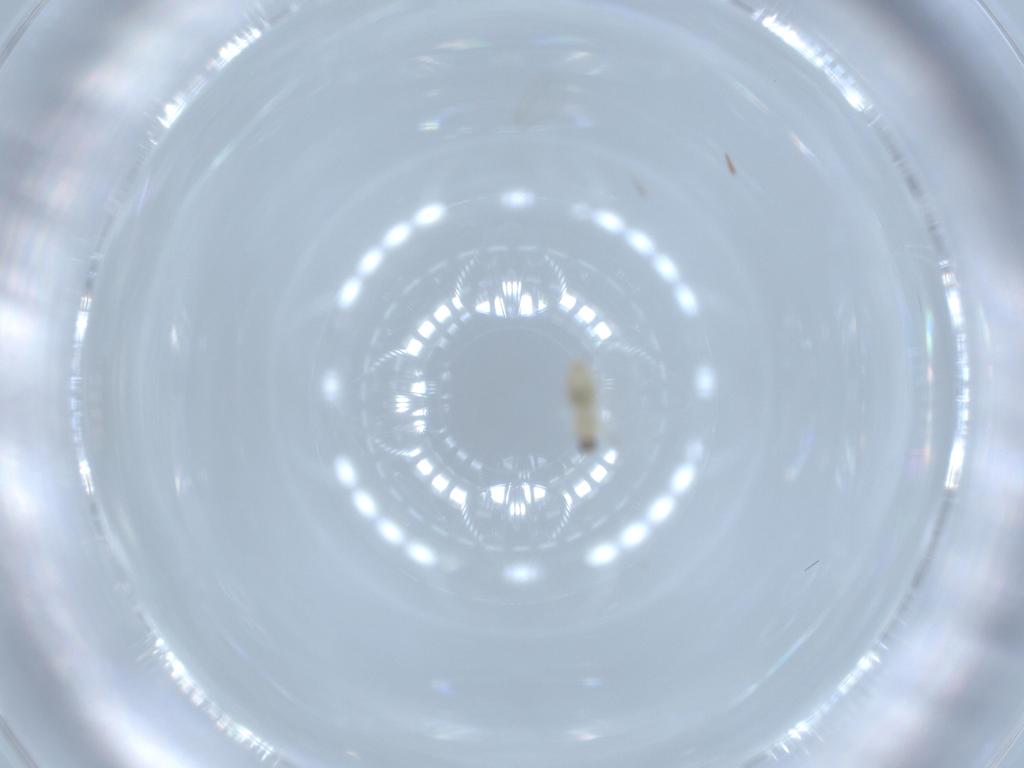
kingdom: Animalia
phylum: Arthropoda
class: Insecta
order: Diptera
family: Cecidomyiidae
